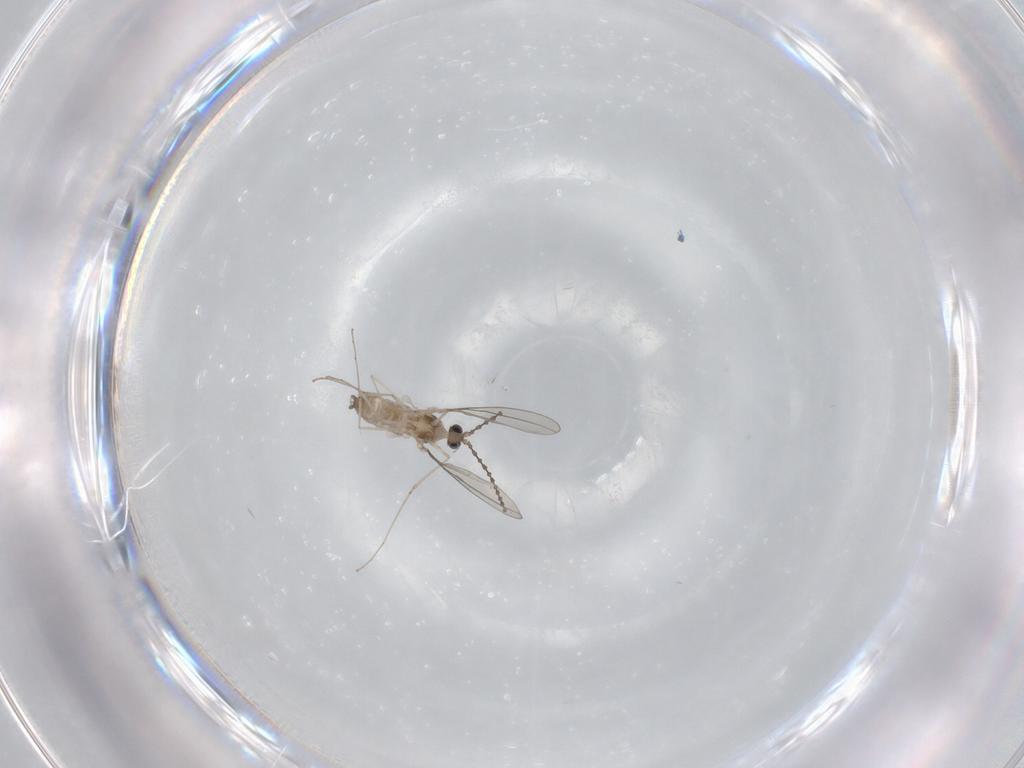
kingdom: Animalia
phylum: Arthropoda
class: Insecta
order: Diptera
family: Cecidomyiidae
